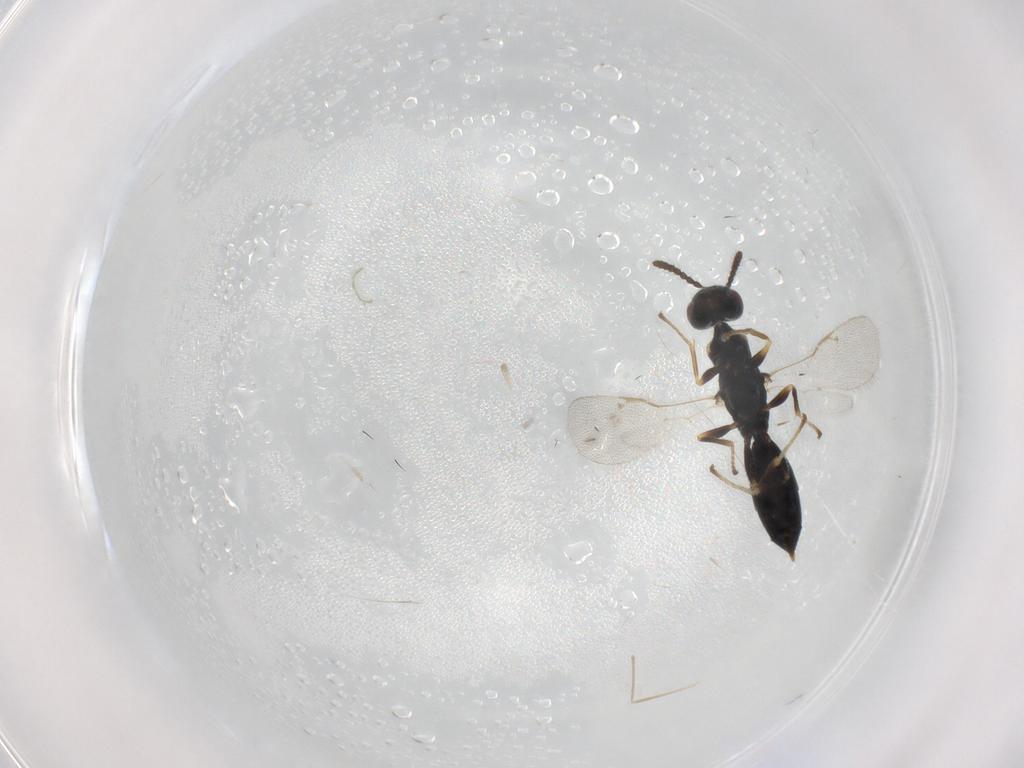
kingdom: Animalia
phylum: Arthropoda
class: Insecta
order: Hymenoptera
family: Eurytomidae
